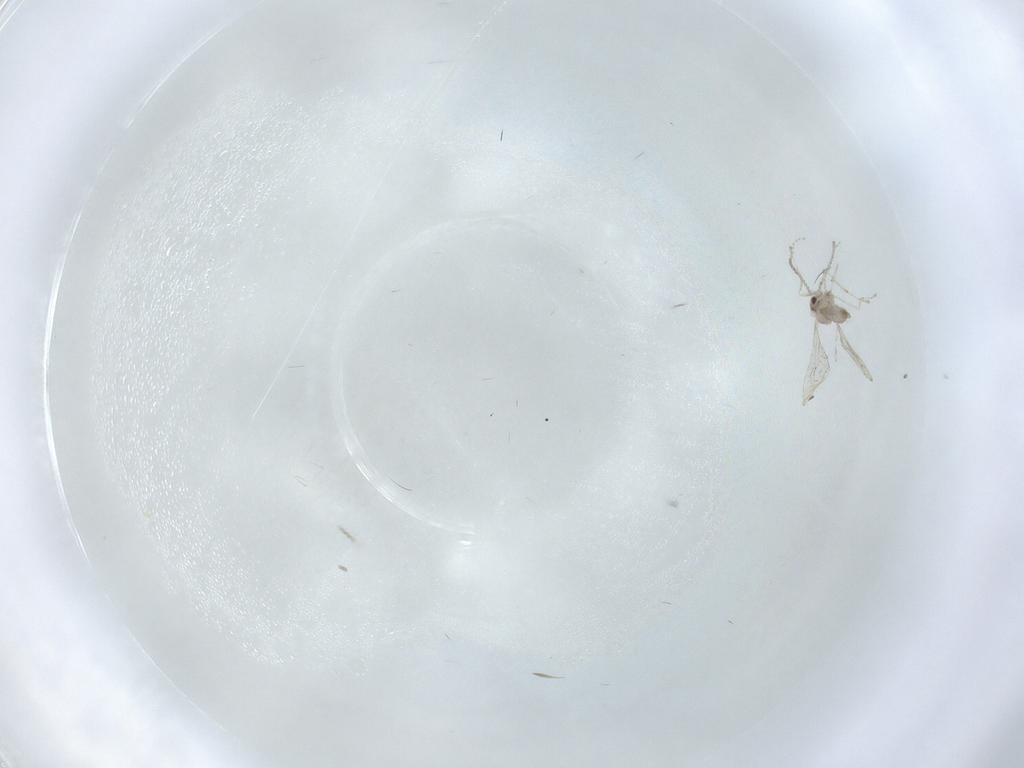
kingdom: Animalia
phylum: Arthropoda
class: Insecta
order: Diptera
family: Cecidomyiidae
